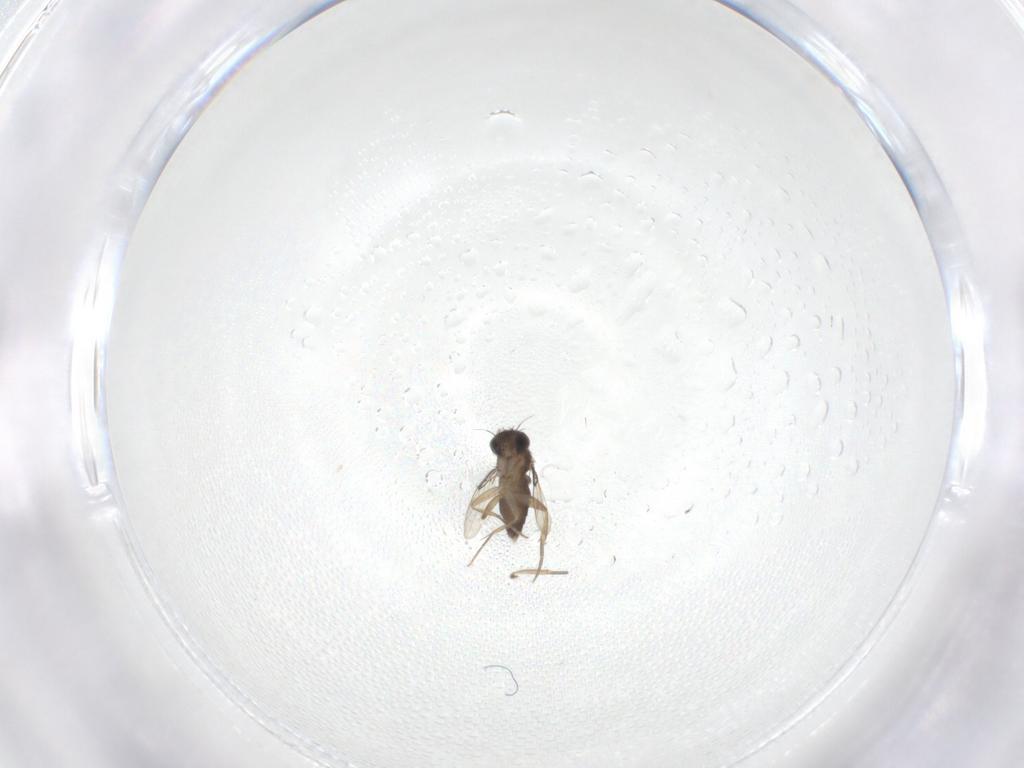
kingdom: Animalia
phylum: Arthropoda
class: Insecta
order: Diptera
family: Phoridae
